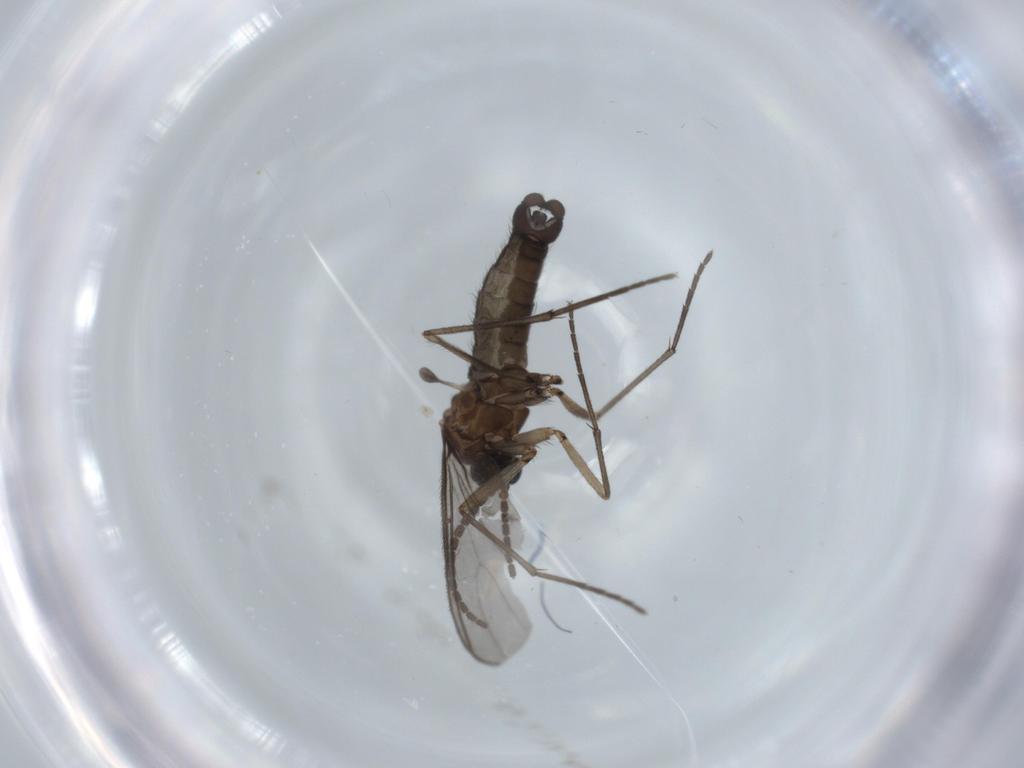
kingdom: Animalia
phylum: Arthropoda
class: Insecta
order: Diptera
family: Sciaridae
